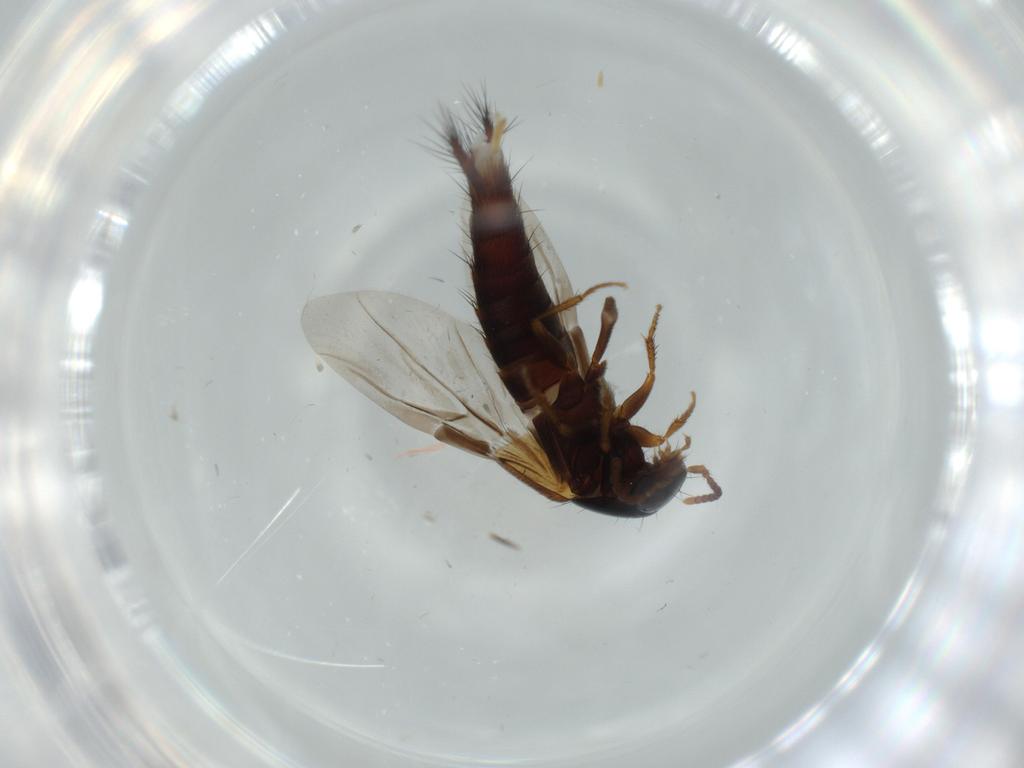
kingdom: Animalia
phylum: Arthropoda
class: Insecta
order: Coleoptera
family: Staphylinidae
